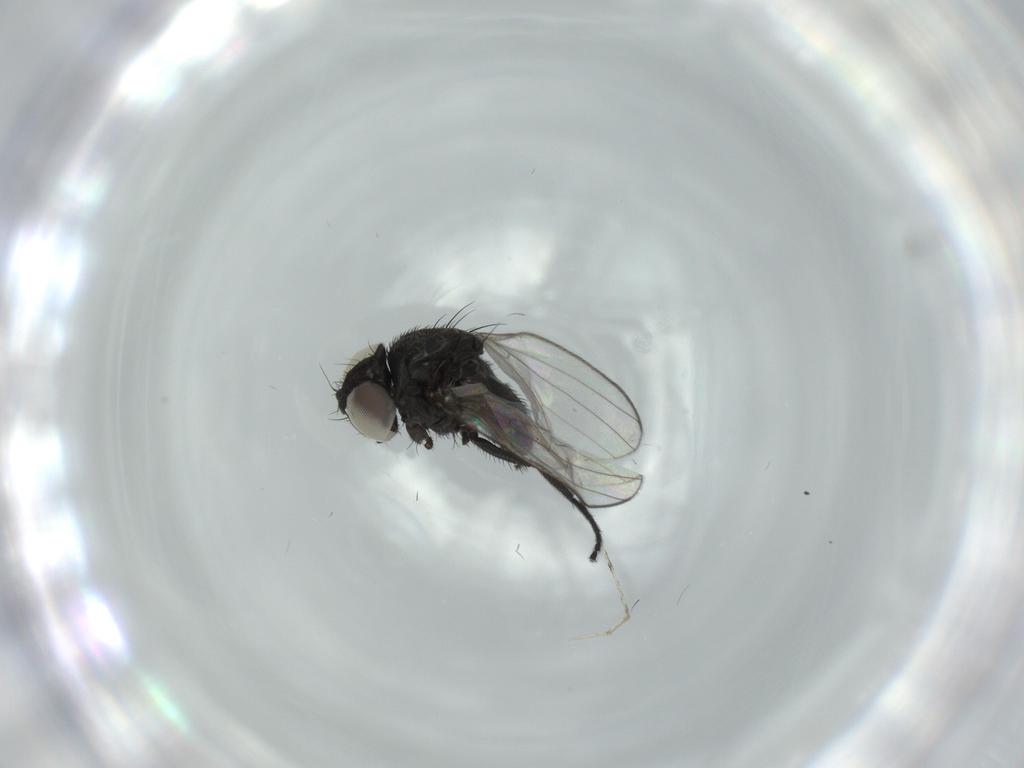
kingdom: Animalia
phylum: Arthropoda
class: Insecta
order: Diptera
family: Milichiidae
